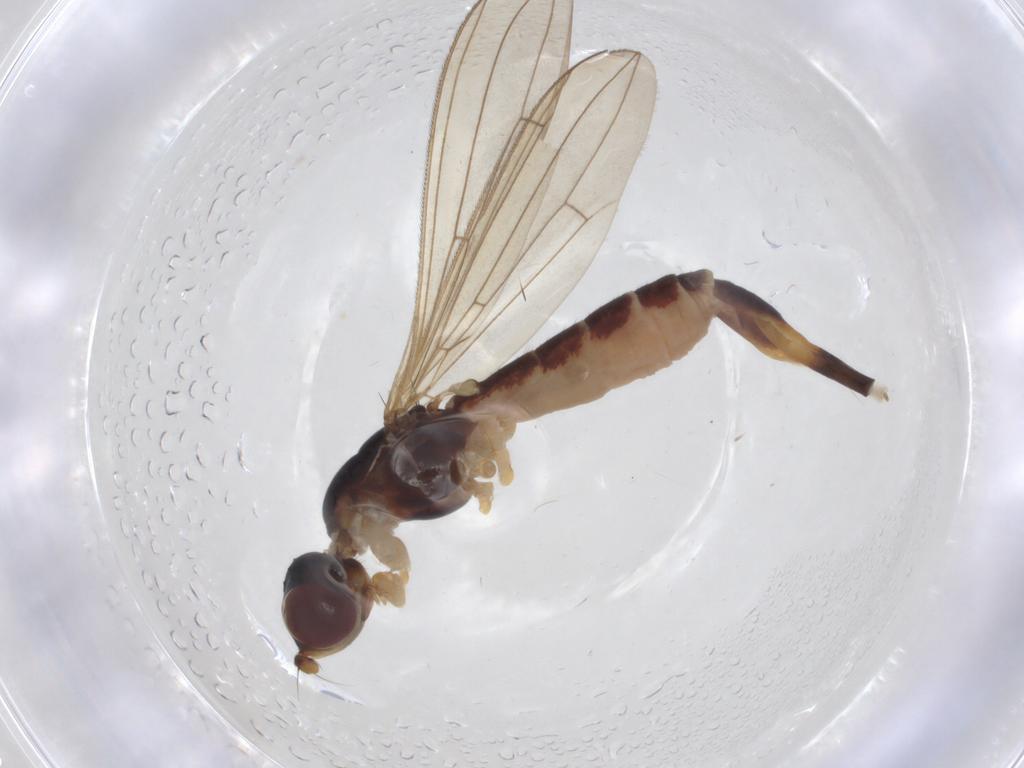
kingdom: Animalia
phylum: Arthropoda
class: Insecta
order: Diptera
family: Micropezidae
